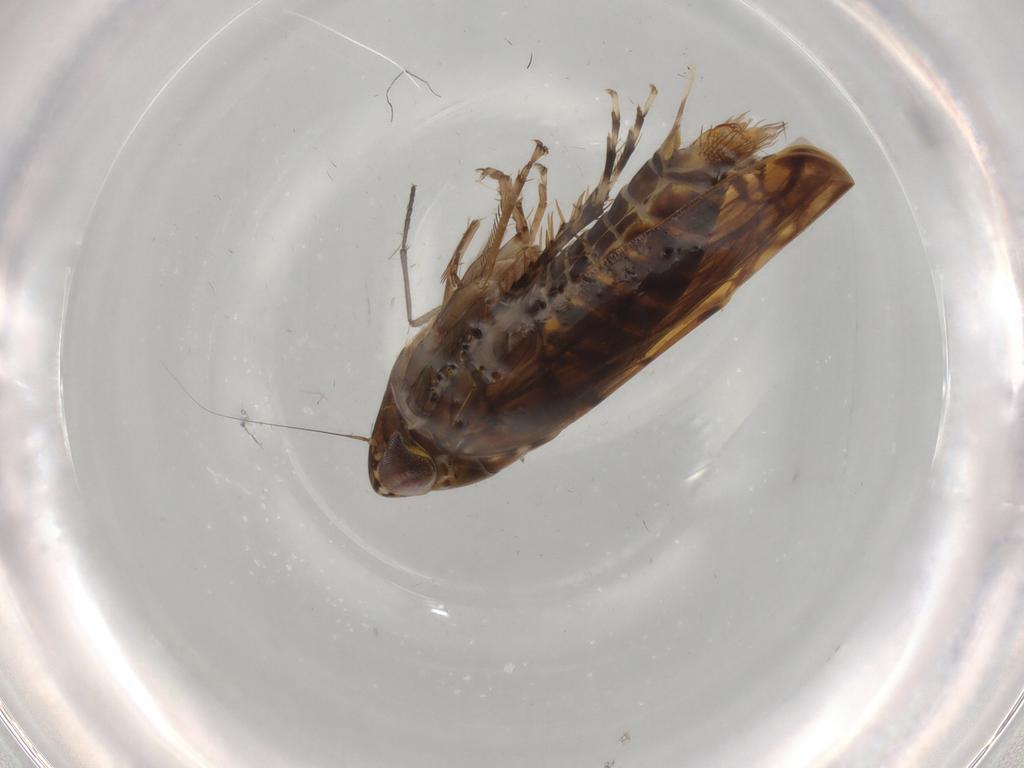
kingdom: Animalia
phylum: Arthropoda
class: Insecta
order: Hemiptera
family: Cicadellidae
